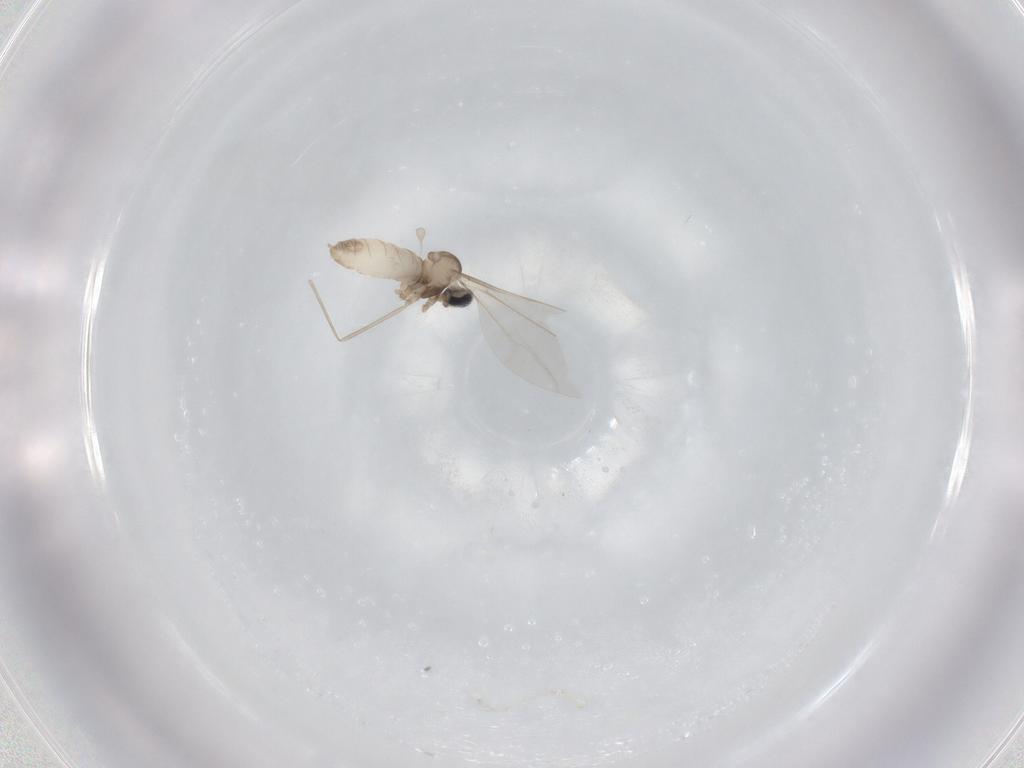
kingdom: Animalia
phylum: Arthropoda
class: Insecta
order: Diptera
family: Cecidomyiidae
